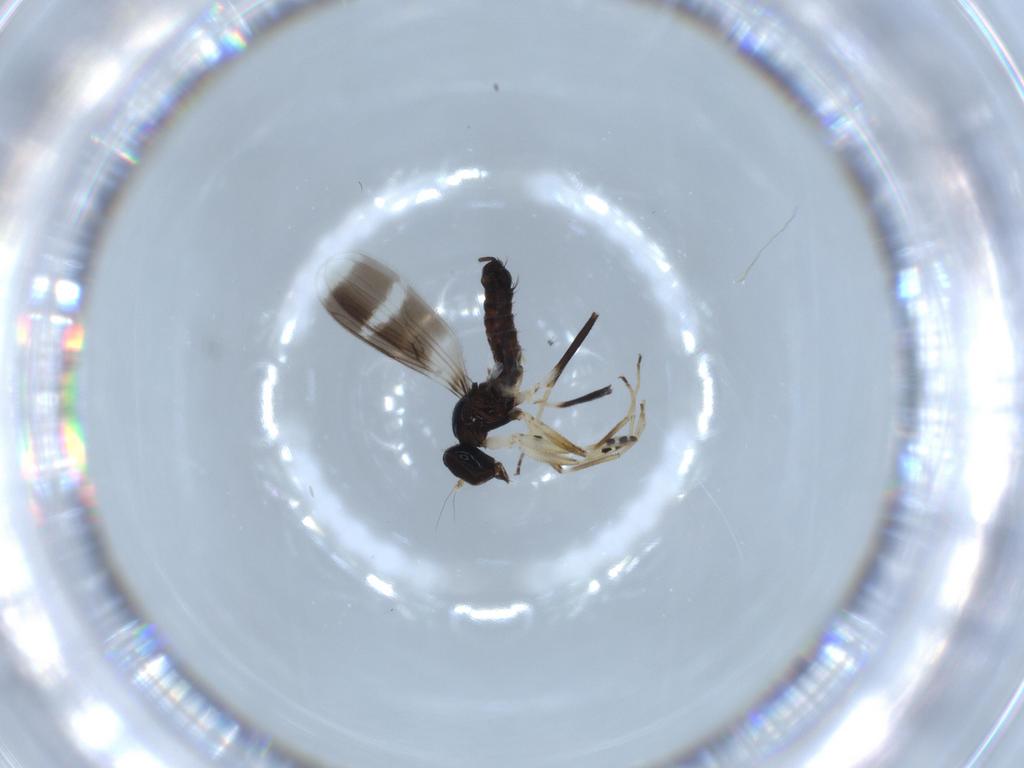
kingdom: Animalia
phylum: Arthropoda
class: Insecta
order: Diptera
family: Hybotidae
